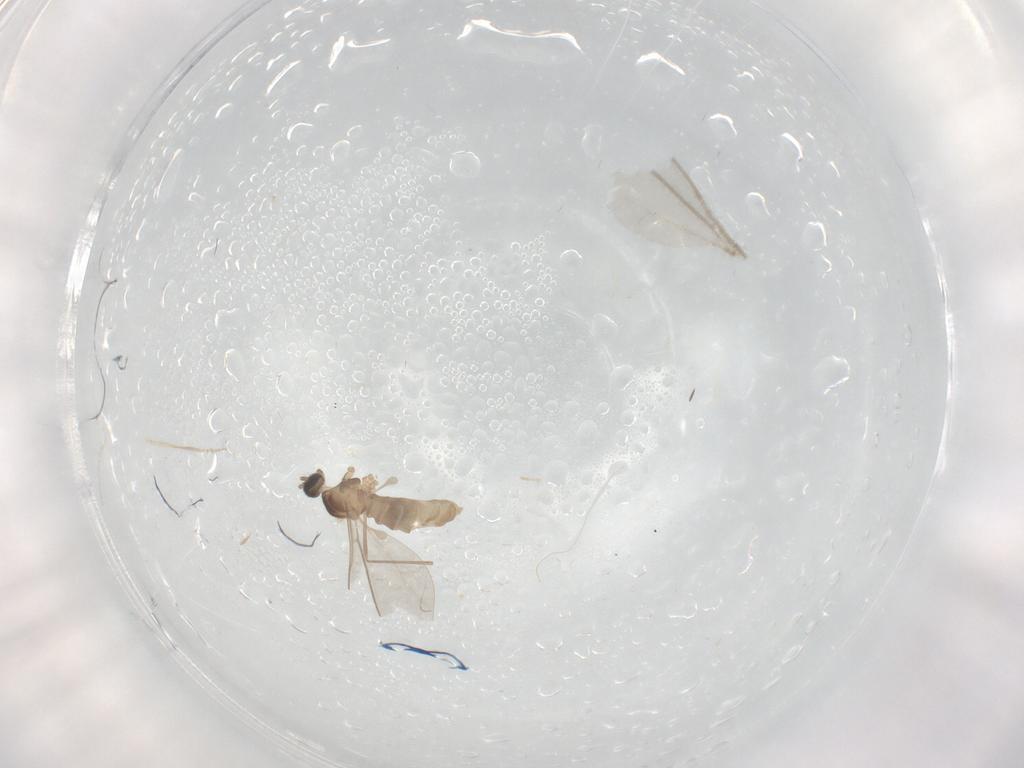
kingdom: Animalia
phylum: Arthropoda
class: Insecta
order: Diptera
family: Cecidomyiidae
